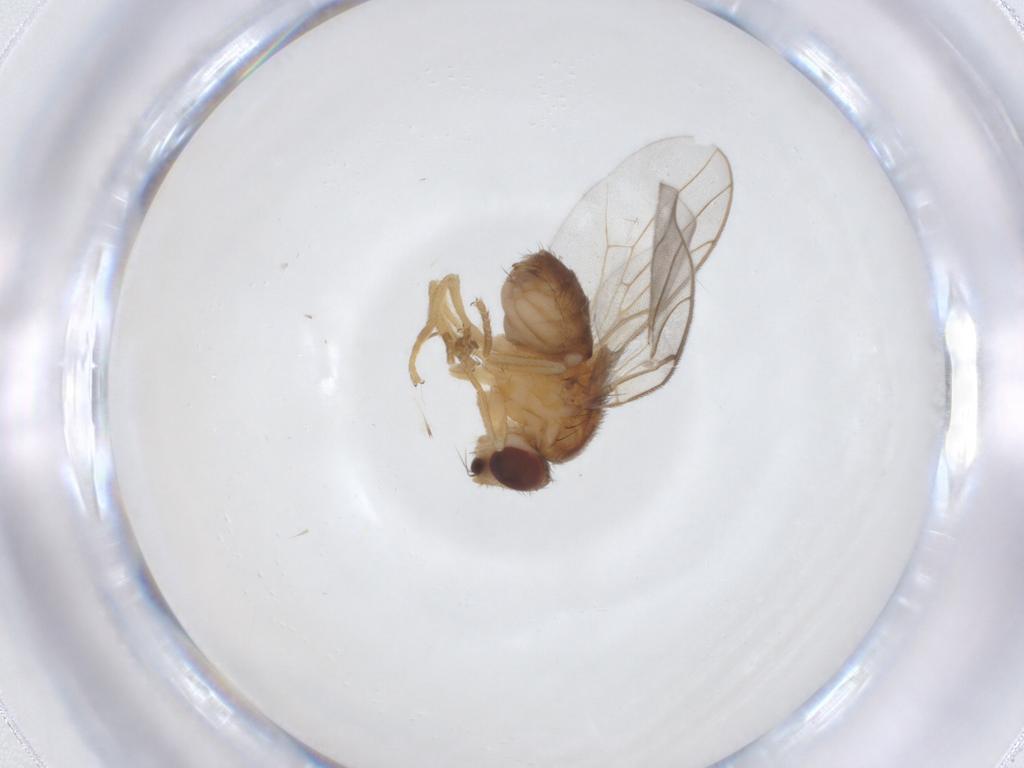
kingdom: Animalia
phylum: Arthropoda
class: Insecta
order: Diptera
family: Chloropidae
